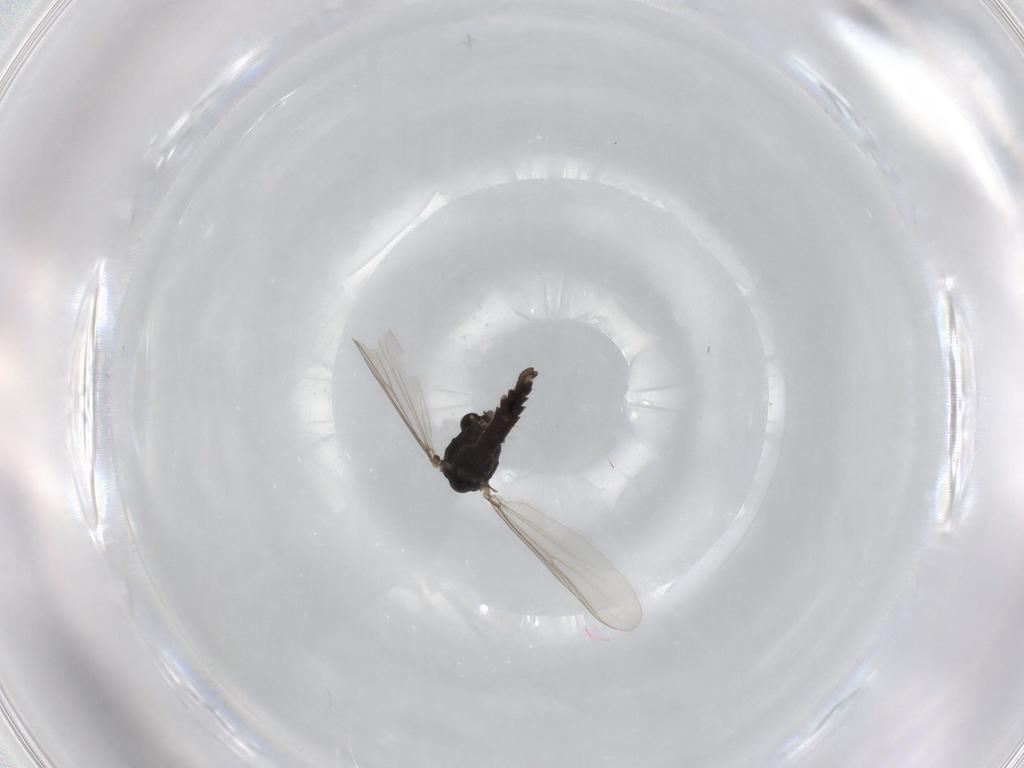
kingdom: Animalia
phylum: Arthropoda
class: Insecta
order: Diptera
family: Chironomidae
